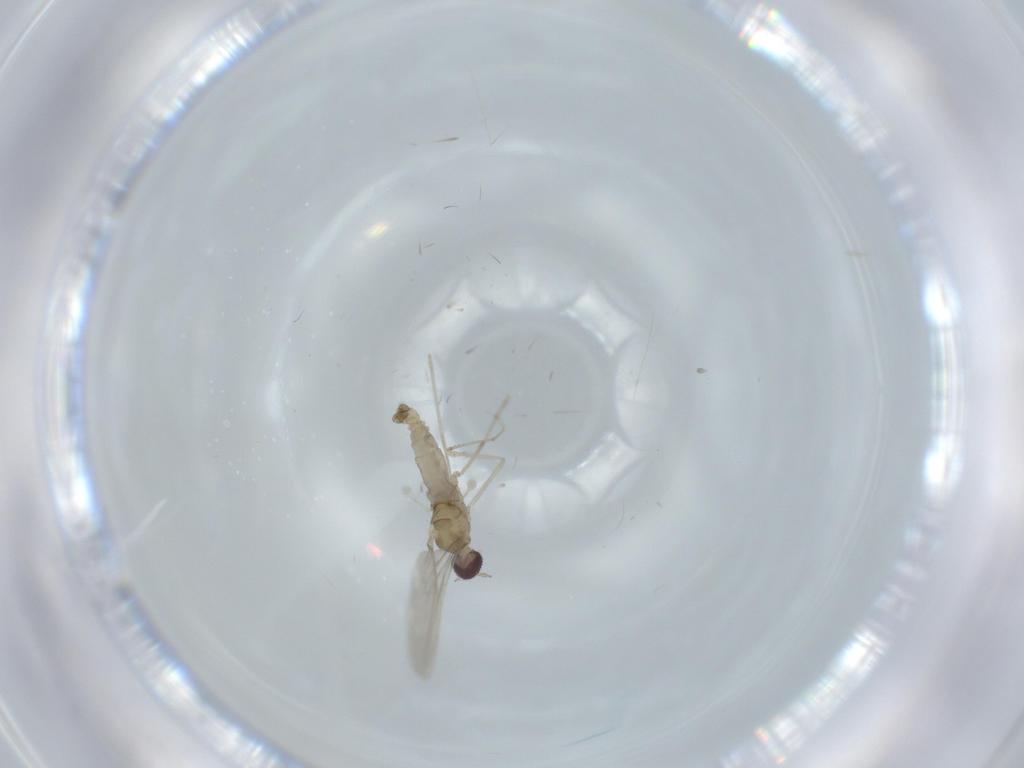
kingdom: Animalia
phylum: Arthropoda
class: Insecta
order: Diptera
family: Cecidomyiidae
